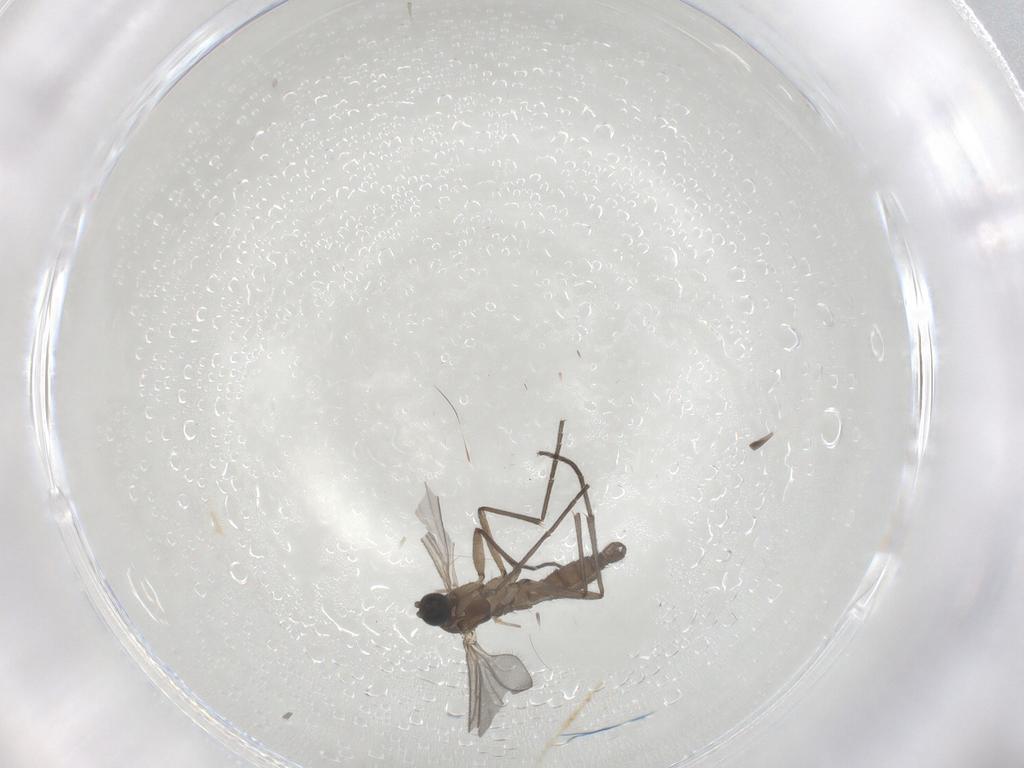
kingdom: Animalia
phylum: Arthropoda
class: Insecta
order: Diptera
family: Sciaridae
